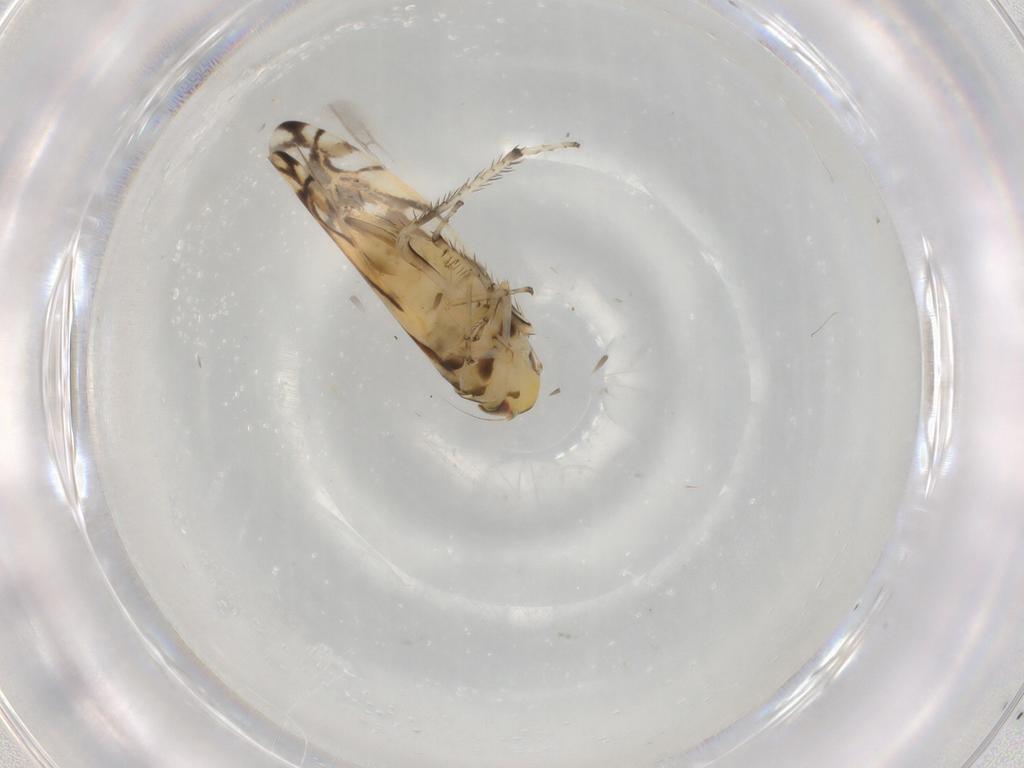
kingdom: Animalia
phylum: Arthropoda
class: Insecta
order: Hemiptera
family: Cicadellidae
